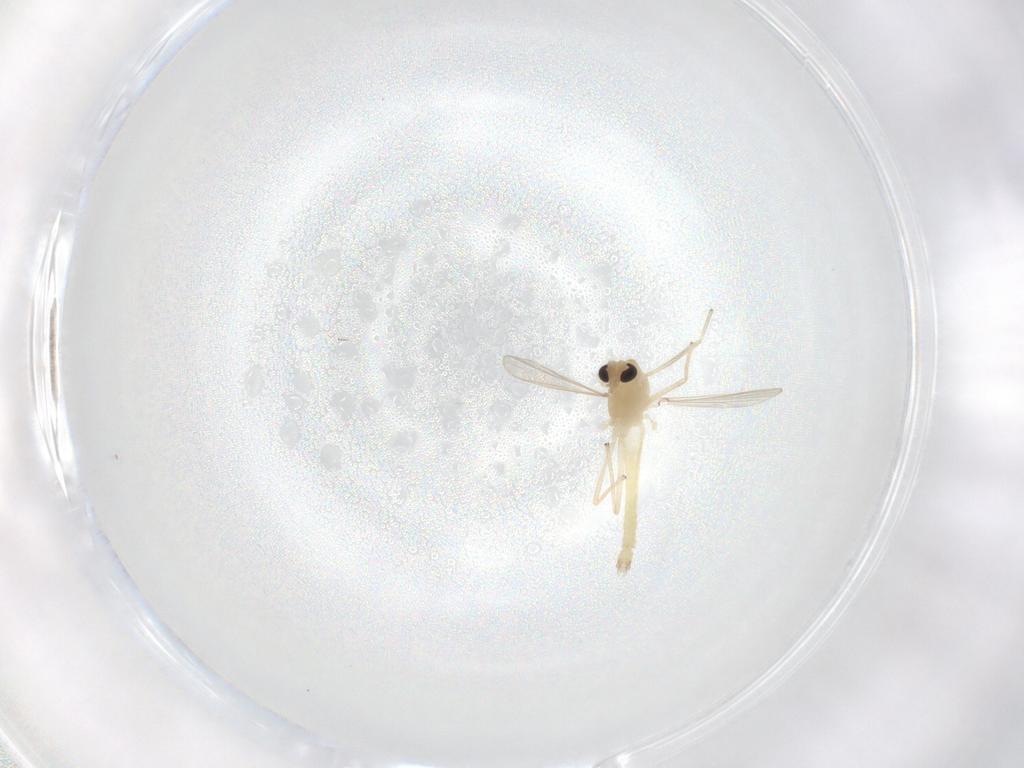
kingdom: Animalia
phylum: Arthropoda
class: Insecta
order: Diptera
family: Chironomidae
